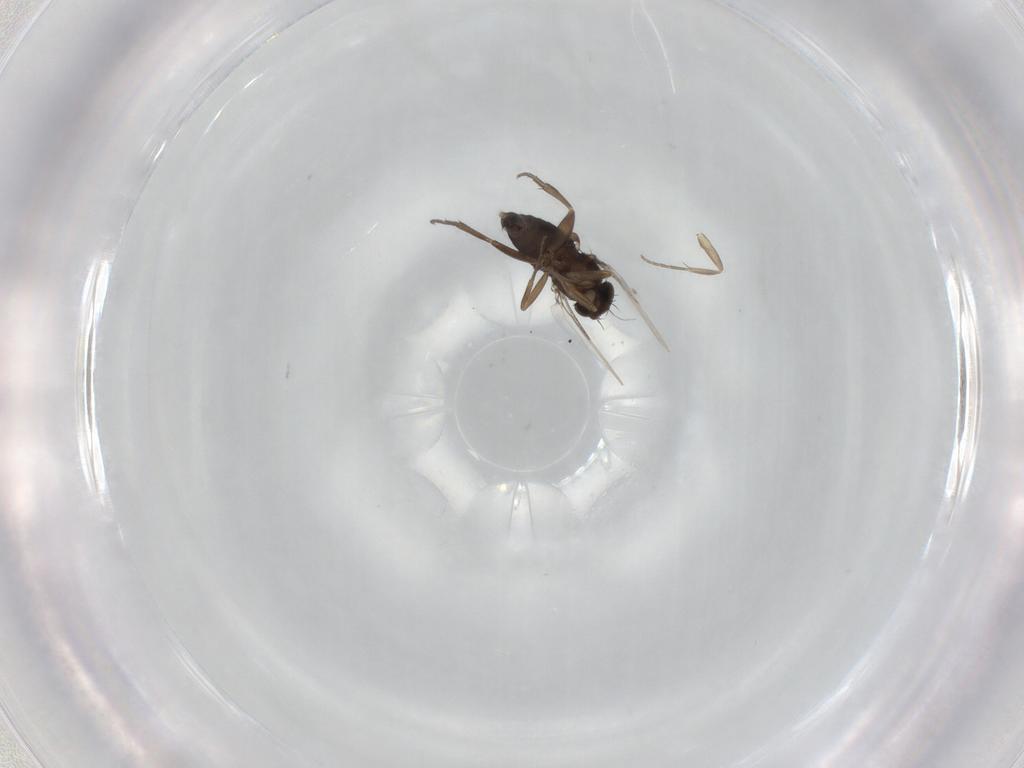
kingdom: Animalia
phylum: Arthropoda
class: Insecta
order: Diptera
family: Phoridae
